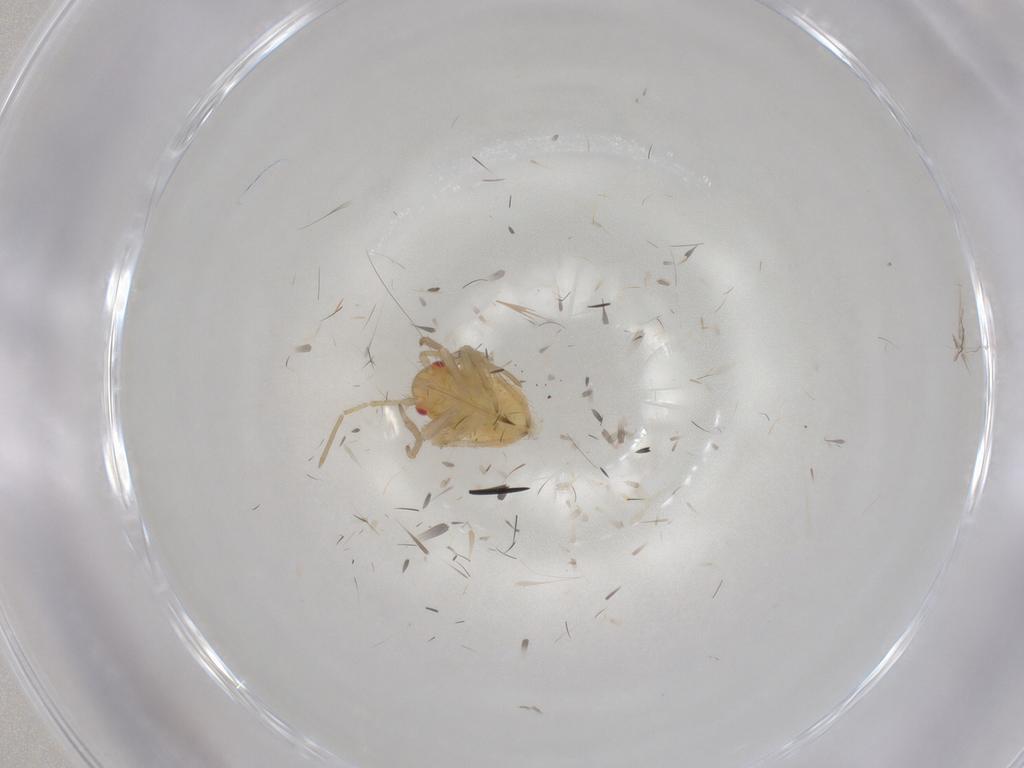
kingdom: Animalia
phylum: Arthropoda
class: Insecta
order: Hemiptera
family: Miridae
